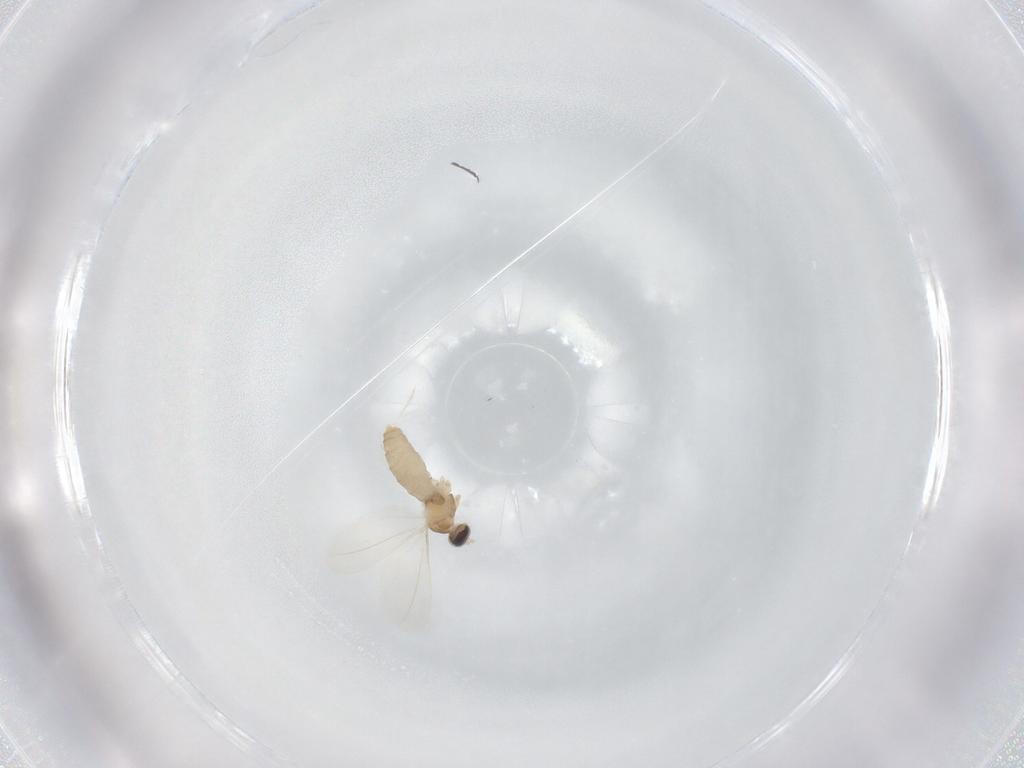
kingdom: Animalia
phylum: Arthropoda
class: Insecta
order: Diptera
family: Cecidomyiidae
